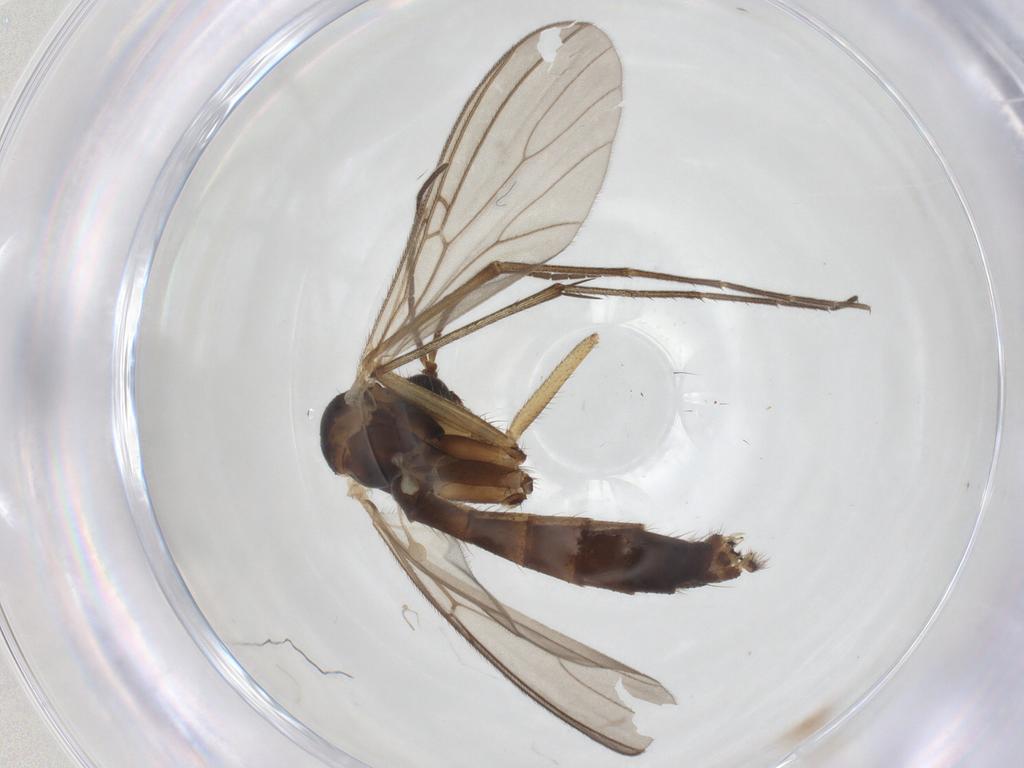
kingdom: Animalia
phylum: Arthropoda
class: Insecta
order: Diptera
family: Mycetophilidae
